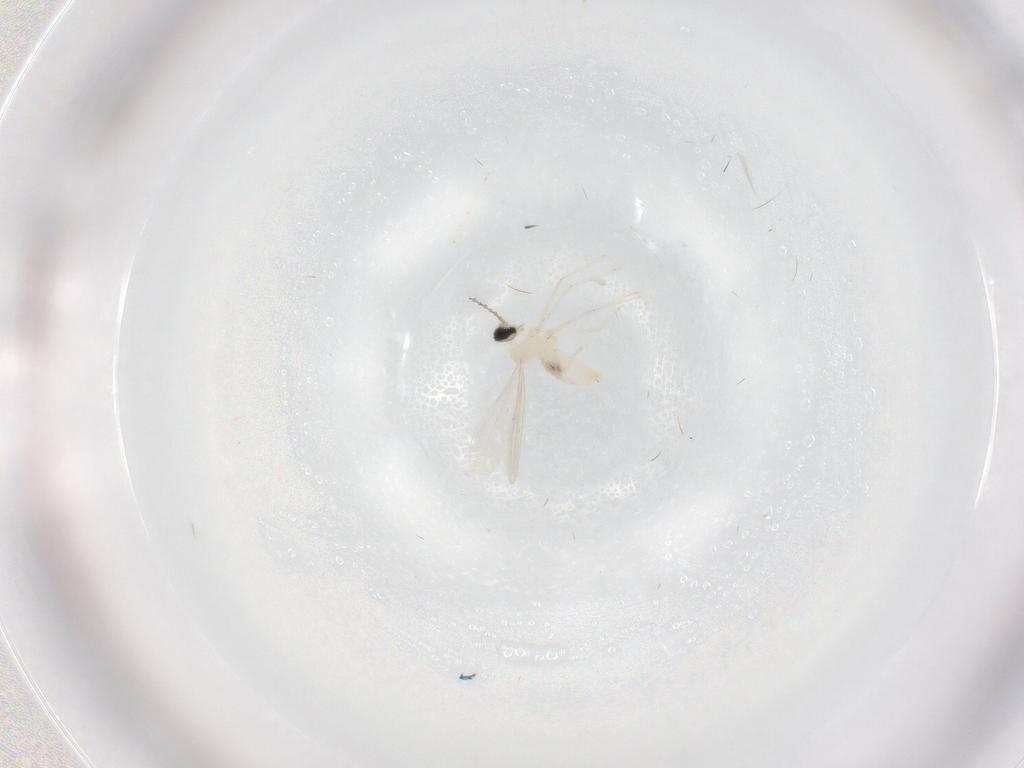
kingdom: Animalia
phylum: Arthropoda
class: Insecta
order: Diptera
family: Cecidomyiidae
